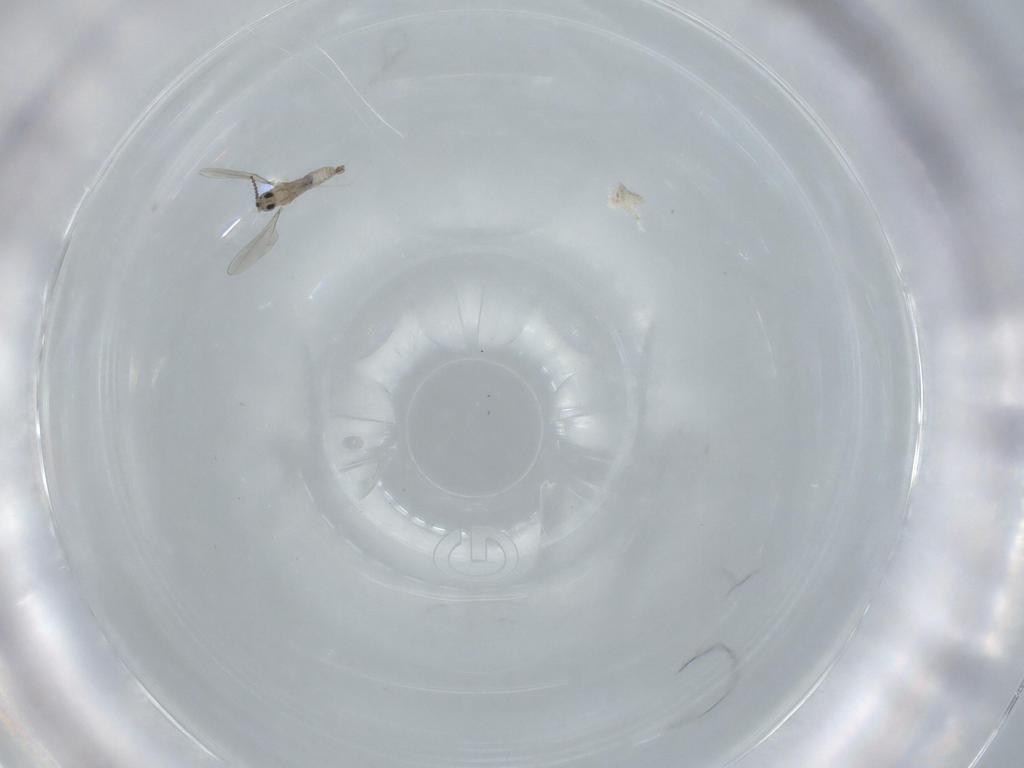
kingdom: Animalia
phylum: Arthropoda
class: Insecta
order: Diptera
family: Cecidomyiidae
